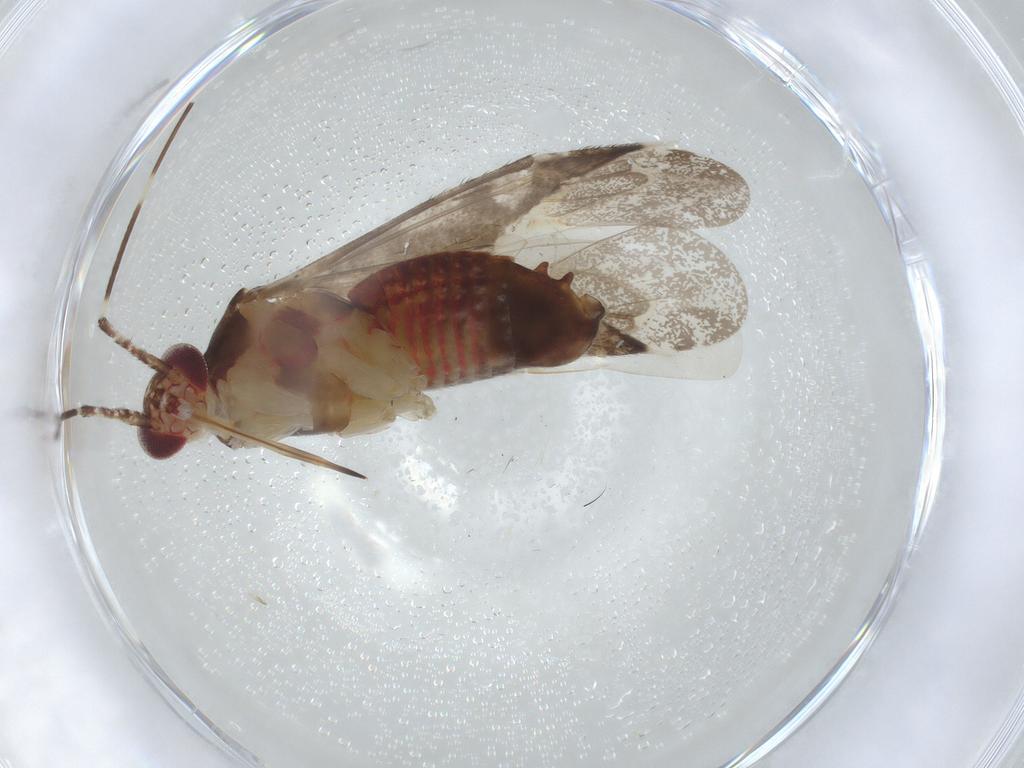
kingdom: Animalia
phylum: Arthropoda
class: Insecta
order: Hemiptera
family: Miridae
